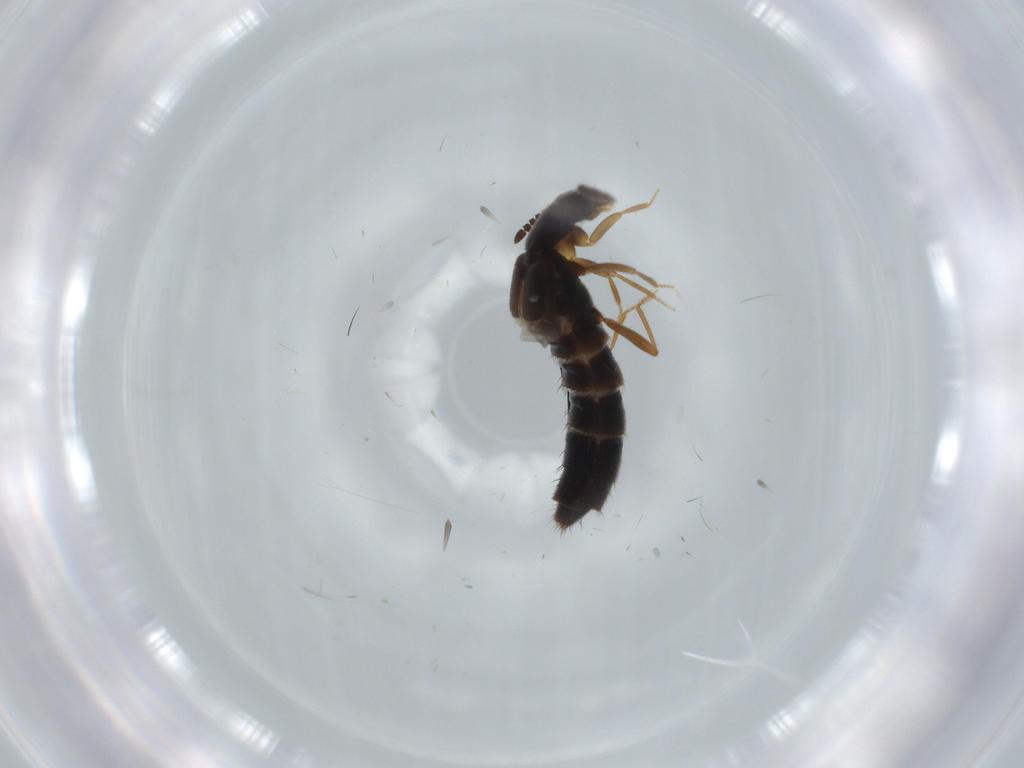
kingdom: Animalia
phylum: Arthropoda
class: Insecta
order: Coleoptera
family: Staphylinidae
